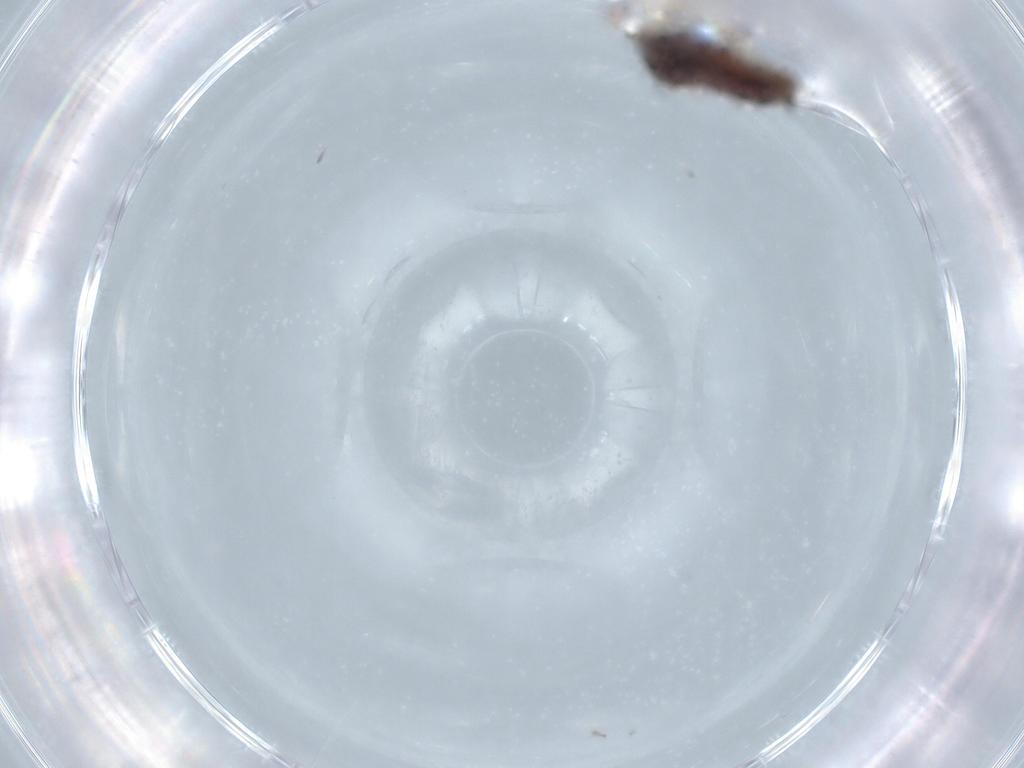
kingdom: Animalia
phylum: Arthropoda
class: Insecta
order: Hemiptera
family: Aphididae
